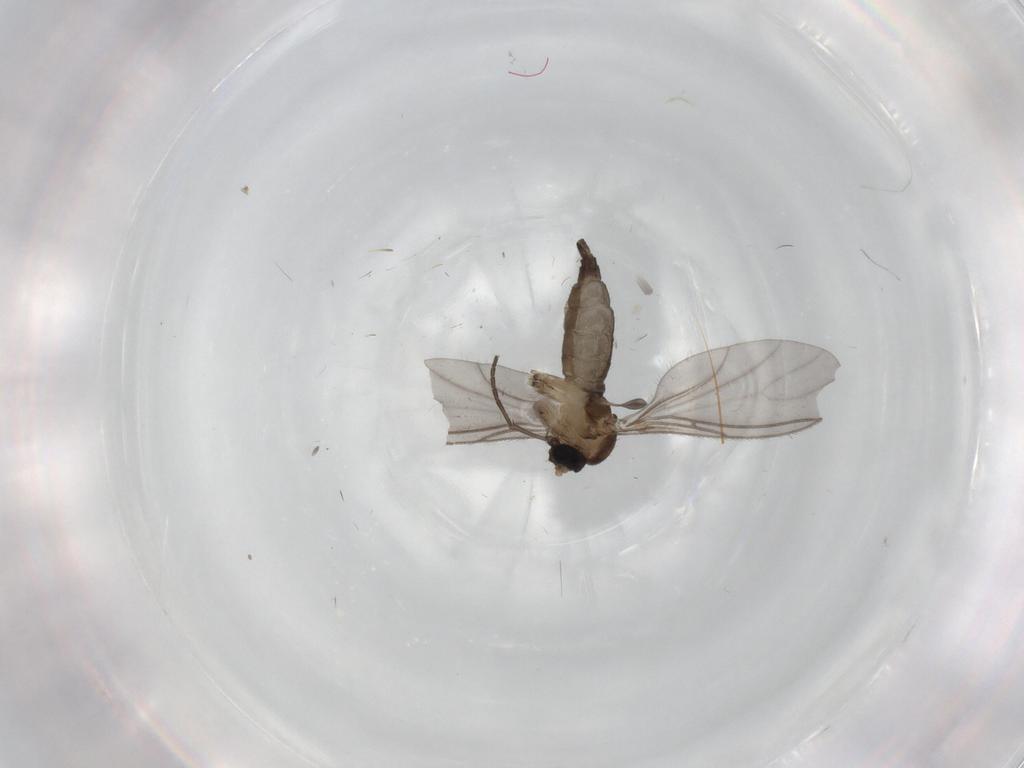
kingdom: Animalia
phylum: Arthropoda
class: Insecta
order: Diptera
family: Sciaridae
